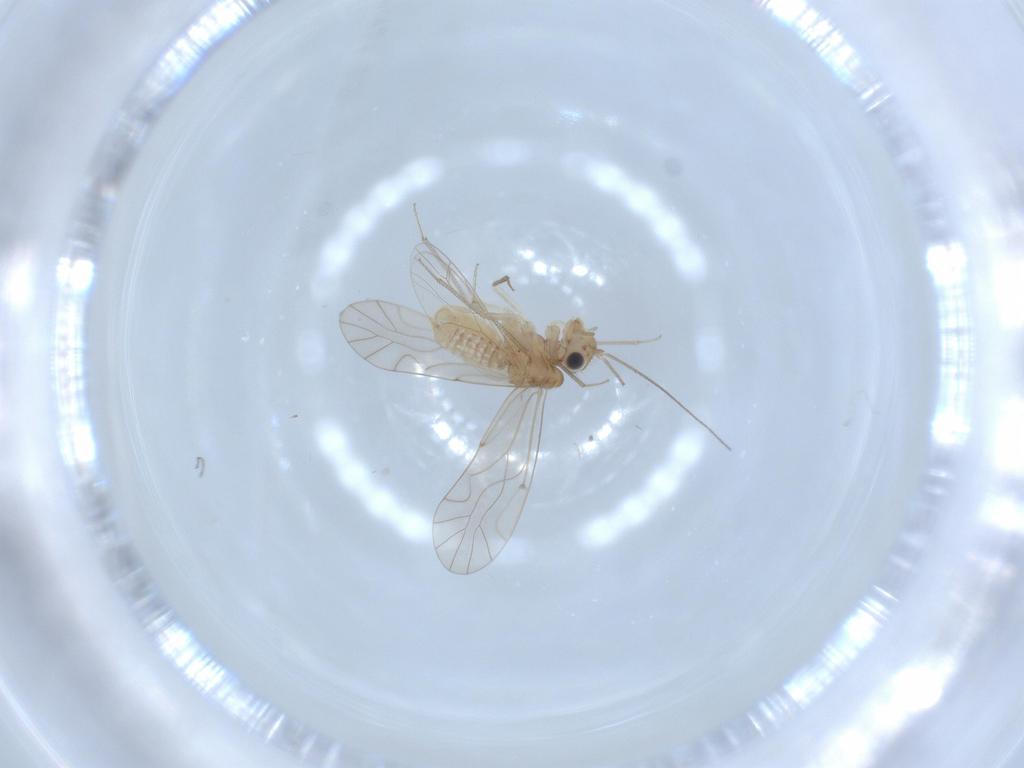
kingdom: Animalia
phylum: Arthropoda
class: Insecta
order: Psocodea
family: Lachesillidae
